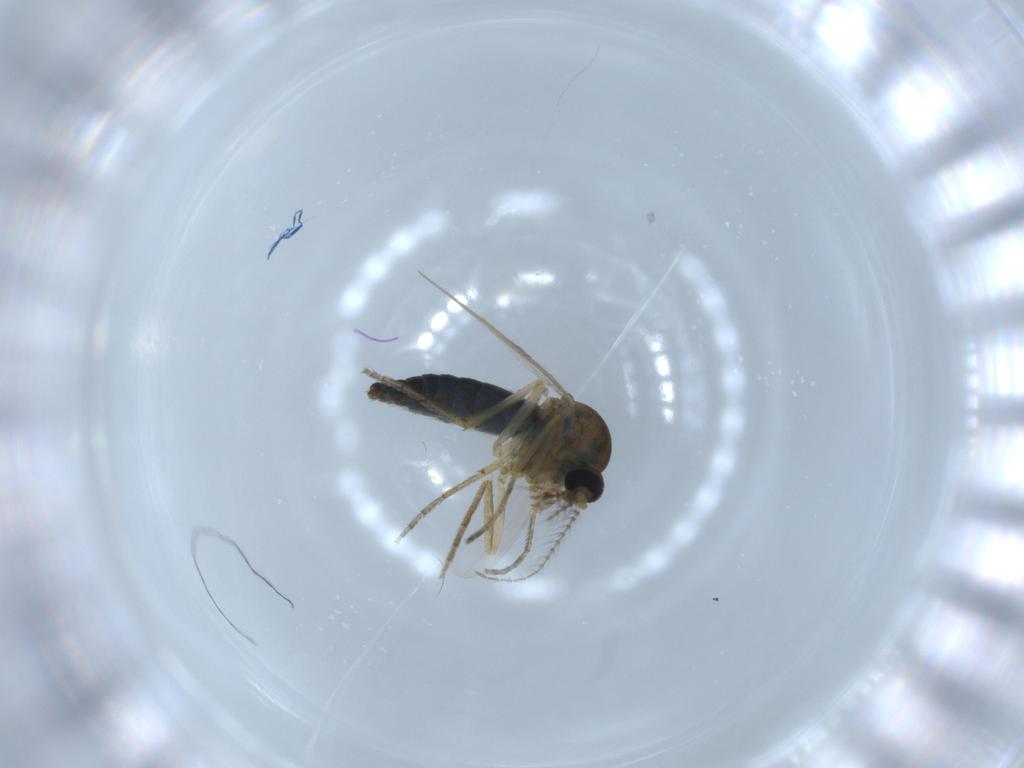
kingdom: Animalia
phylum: Arthropoda
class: Insecta
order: Diptera
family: Ceratopogonidae
